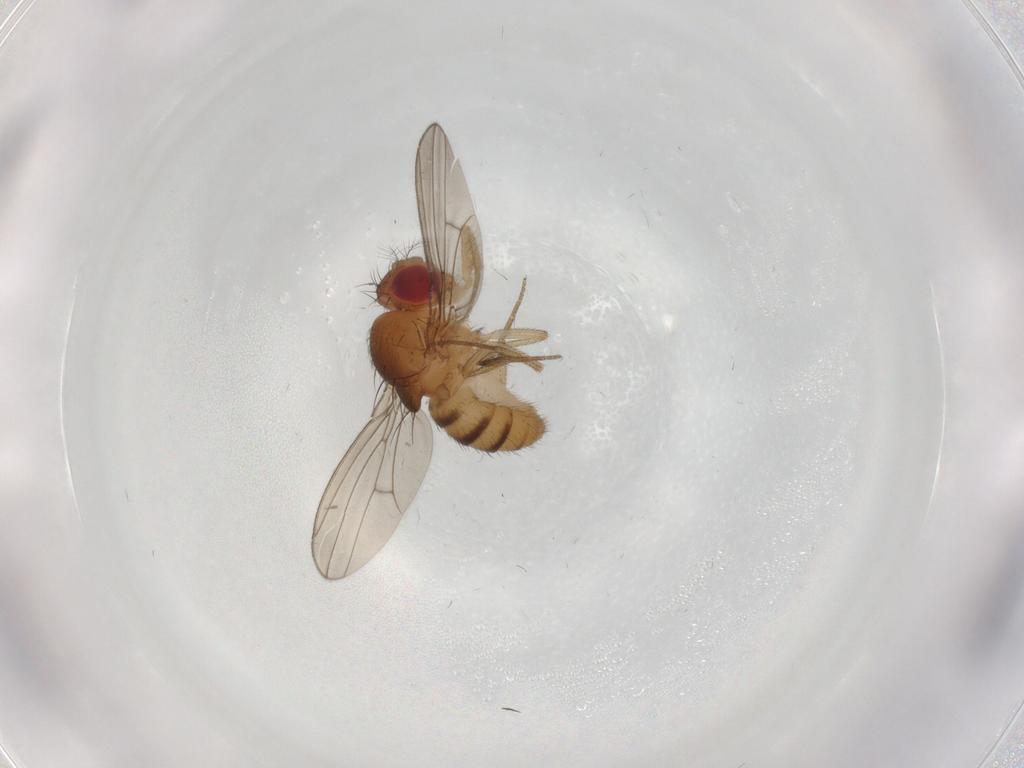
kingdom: Animalia
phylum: Arthropoda
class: Insecta
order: Diptera
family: Drosophilidae
